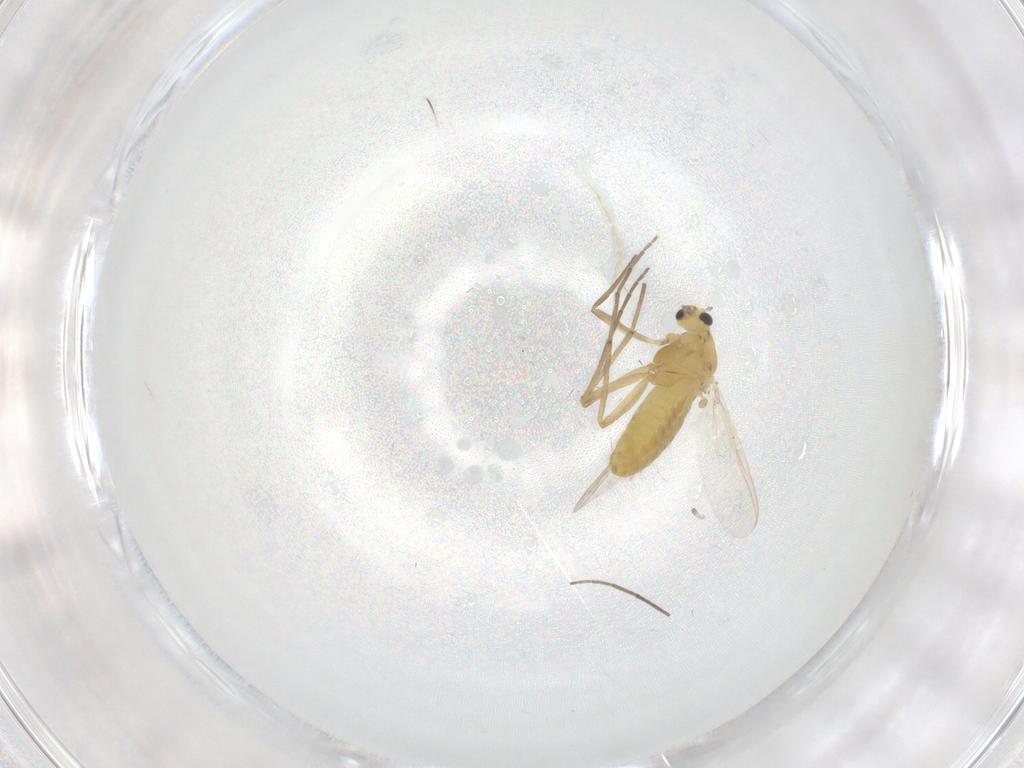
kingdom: Animalia
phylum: Arthropoda
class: Insecta
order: Diptera
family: Chironomidae
